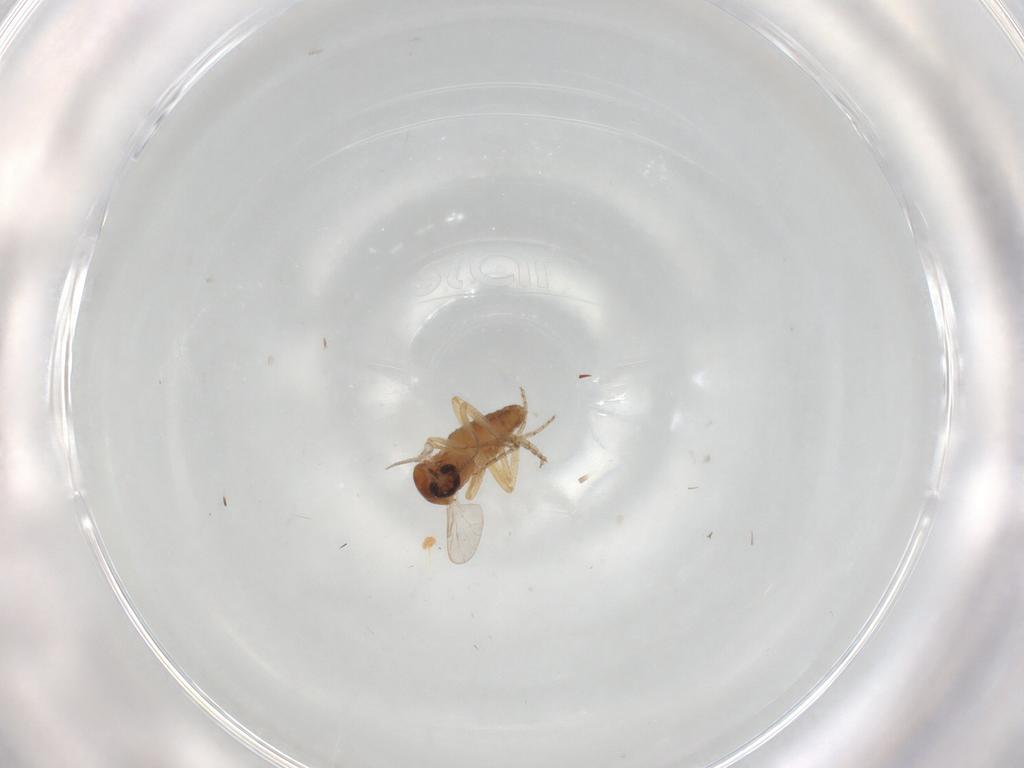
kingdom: Animalia
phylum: Arthropoda
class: Insecta
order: Diptera
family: Ceratopogonidae
